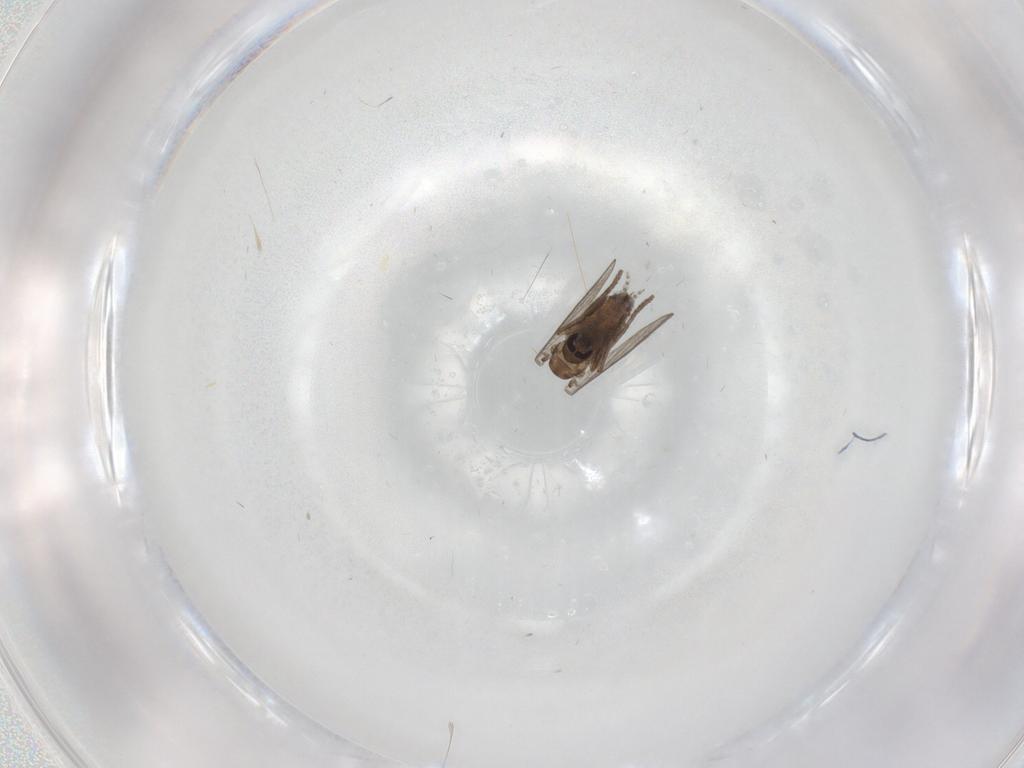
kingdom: Animalia
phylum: Arthropoda
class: Insecta
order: Diptera
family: Psychodidae
